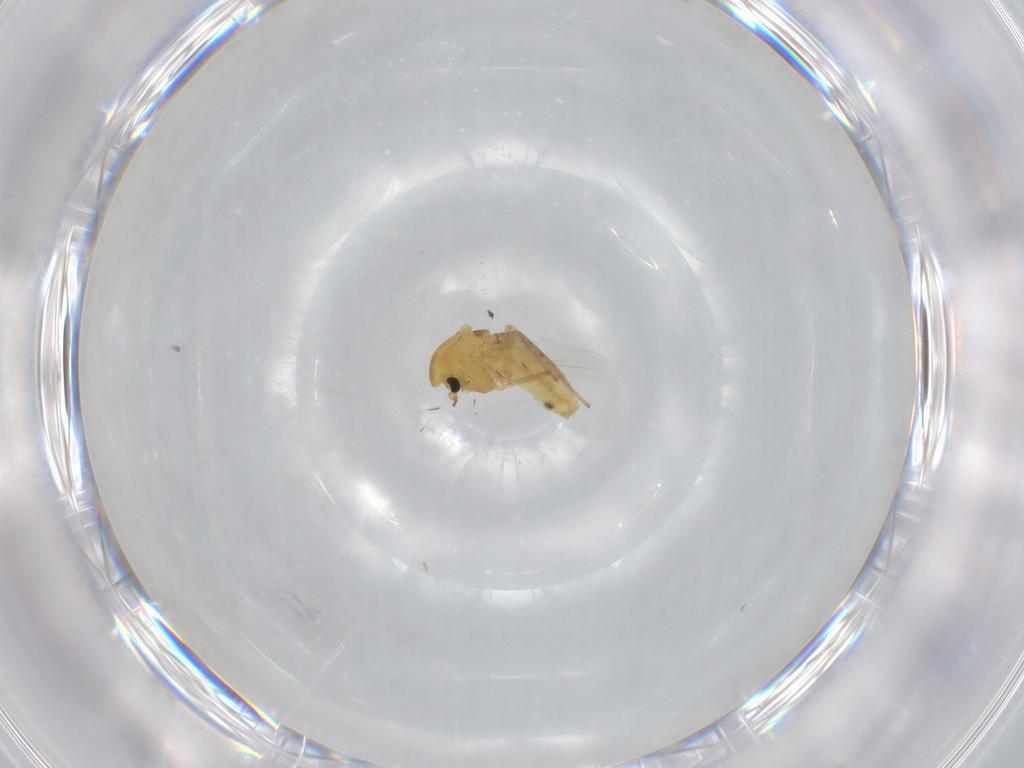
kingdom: Animalia
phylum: Arthropoda
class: Insecta
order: Diptera
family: Chironomidae
